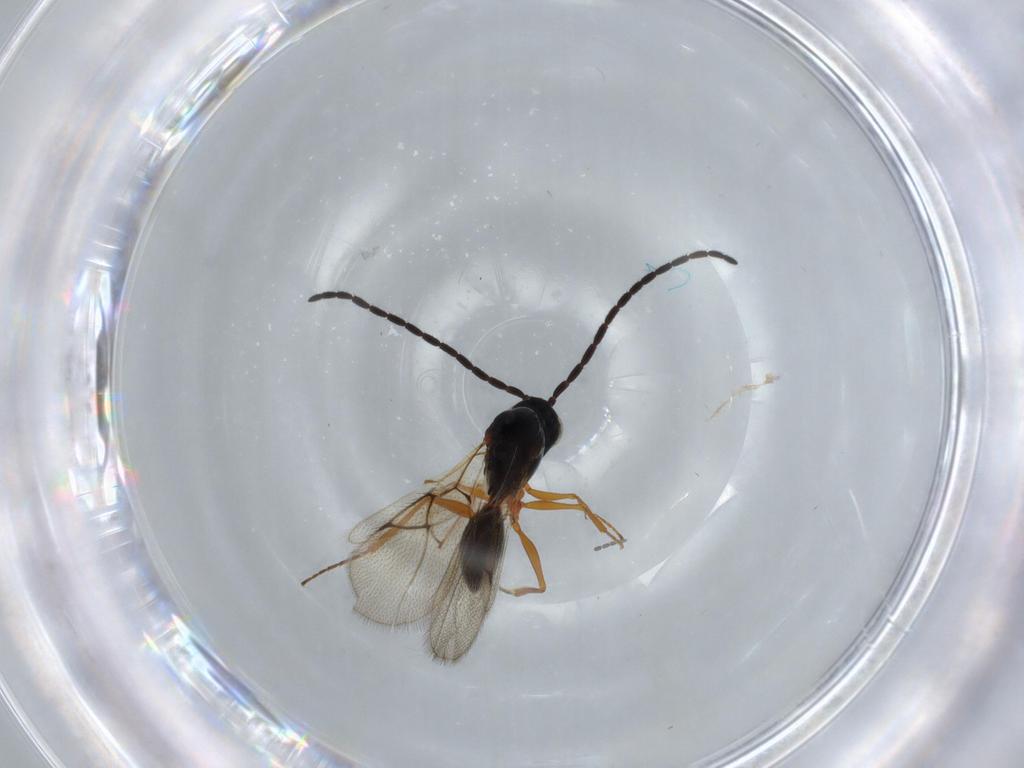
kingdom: Animalia
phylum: Arthropoda
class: Insecta
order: Hymenoptera
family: Figitidae
